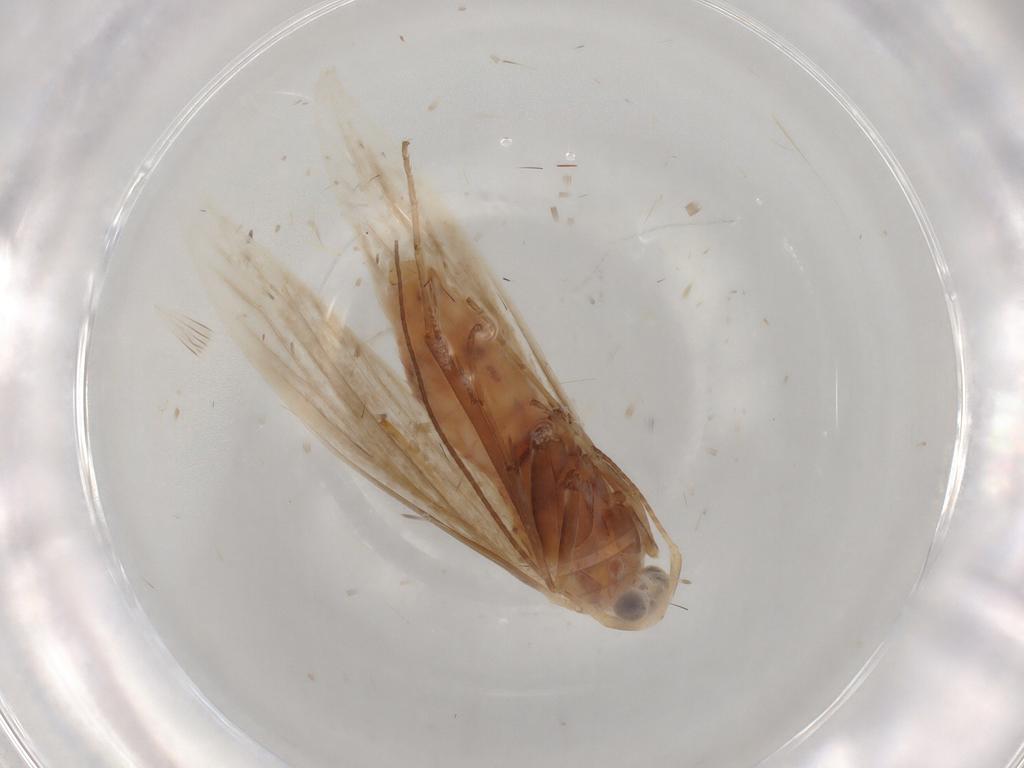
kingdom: Animalia
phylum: Arthropoda
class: Insecta
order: Lepidoptera
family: Coleophoridae
